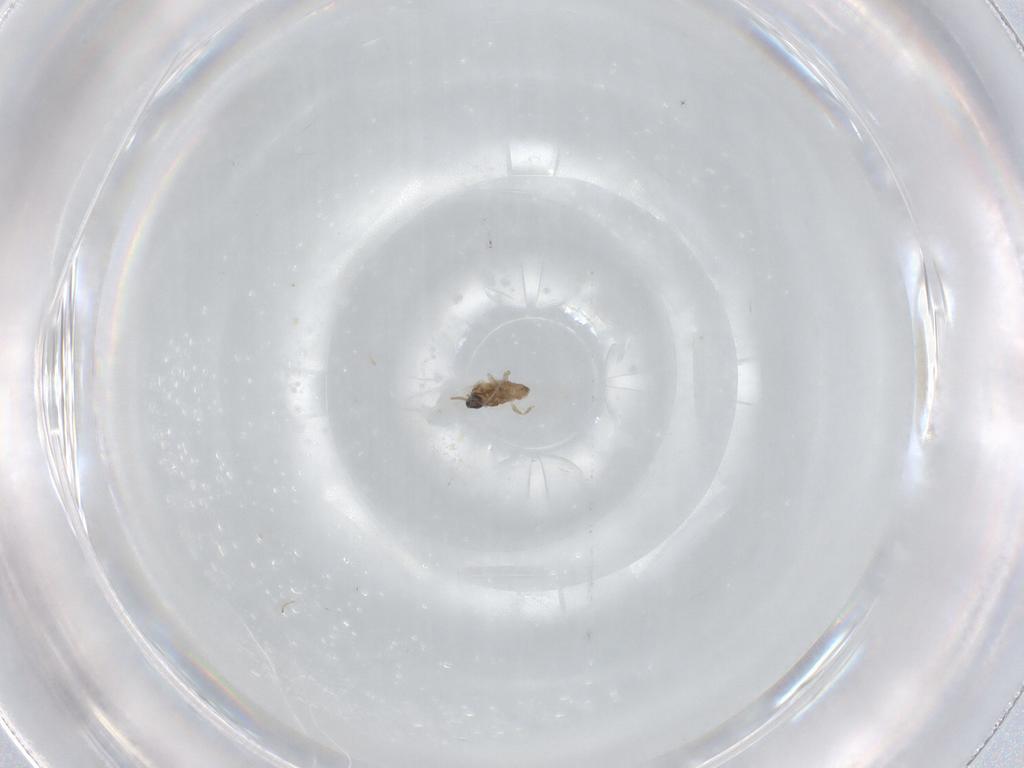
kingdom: Animalia
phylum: Arthropoda
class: Insecta
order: Diptera
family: Cecidomyiidae
